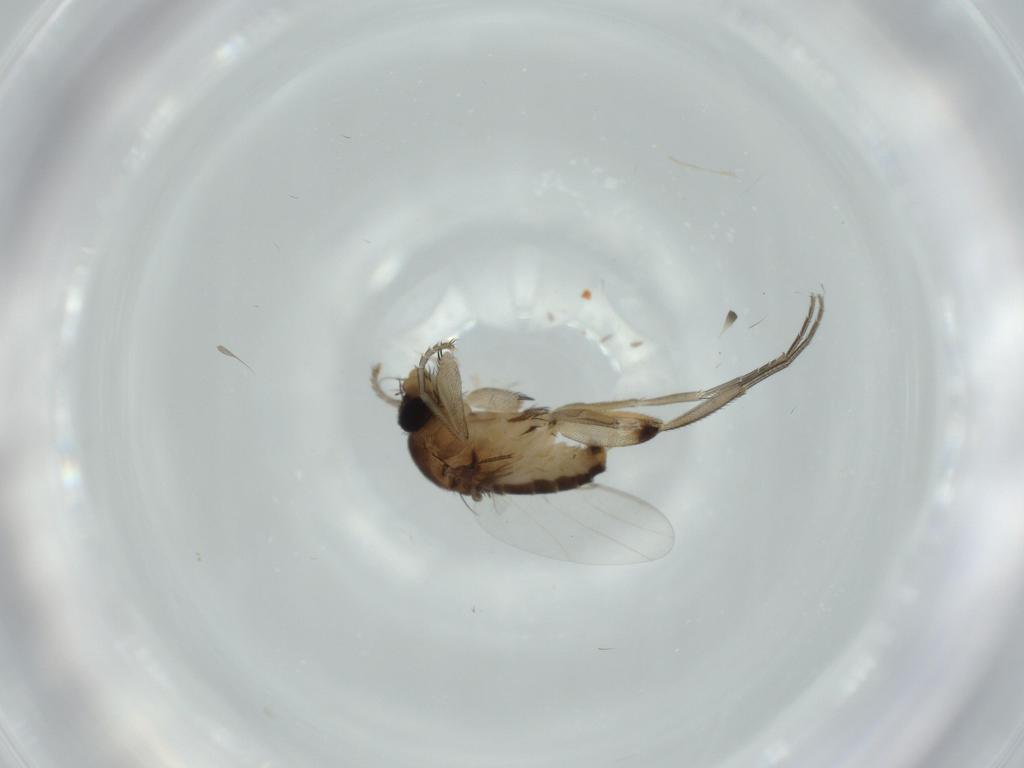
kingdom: Animalia
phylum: Arthropoda
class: Insecta
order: Diptera
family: Phoridae
